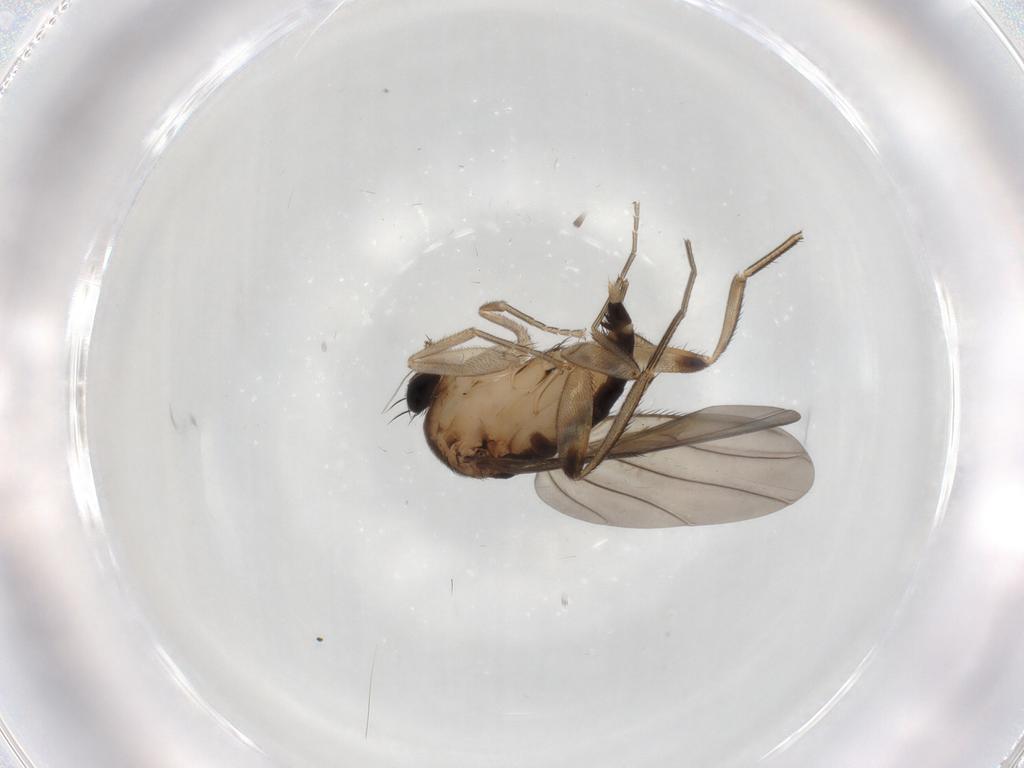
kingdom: Animalia
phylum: Arthropoda
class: Insecta
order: Diptera
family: Phoridae
